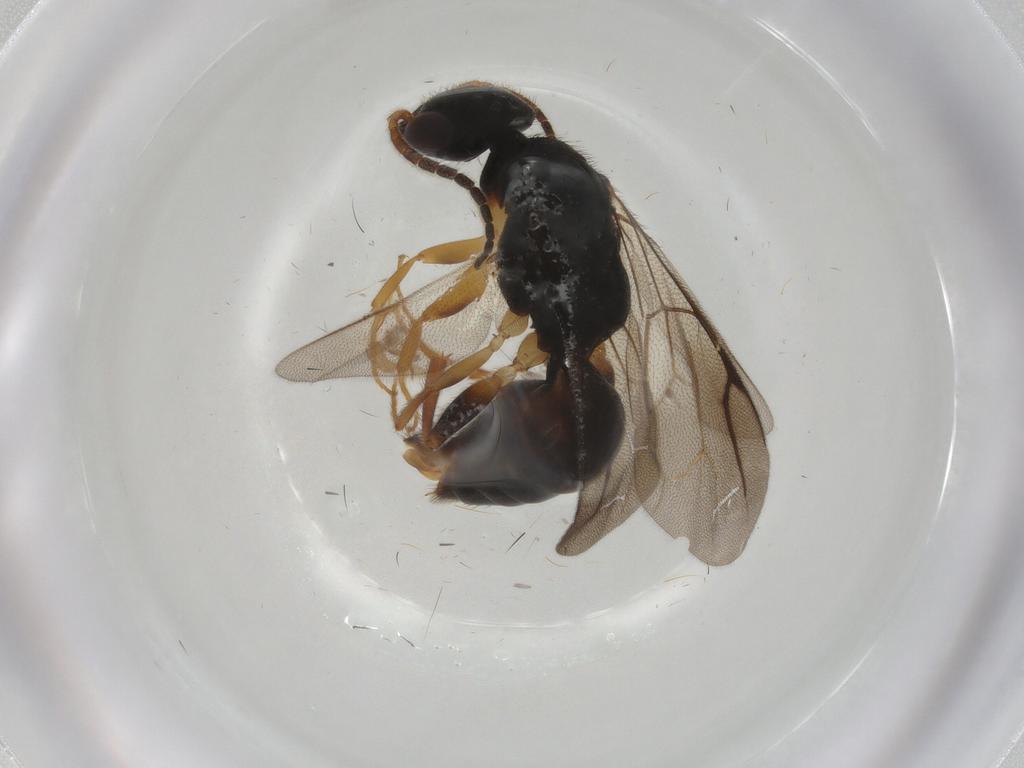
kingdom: Animalia
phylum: Arthropoda
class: Insecta
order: Hymenoptera
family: Bethylidae
